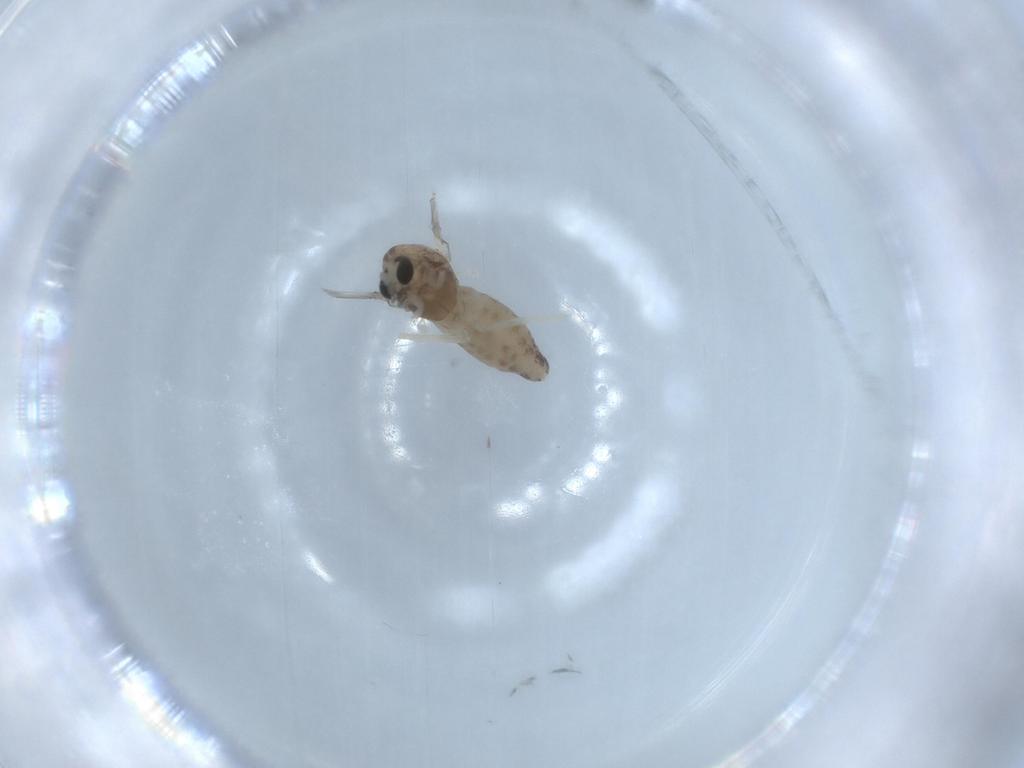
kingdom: Animalia
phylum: Arthropoda
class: Insecta
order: Diptera
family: Chironomidae
